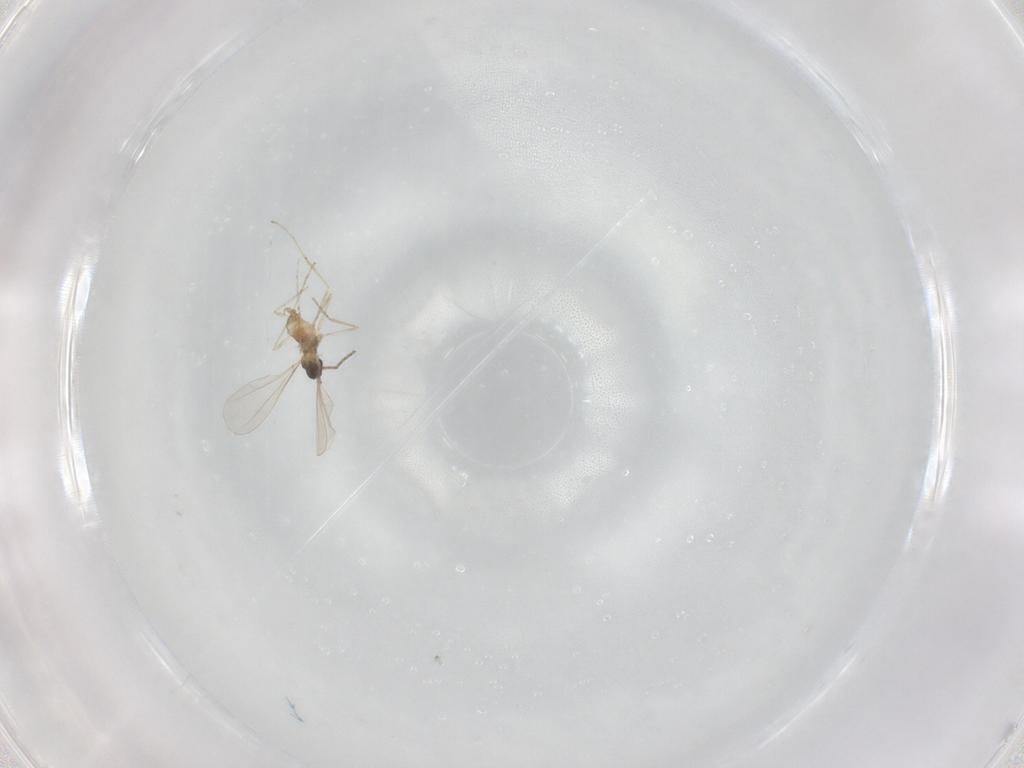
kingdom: Animalia
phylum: Arthropoda
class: Insecta
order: Diptera
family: Cecidomyiidae
